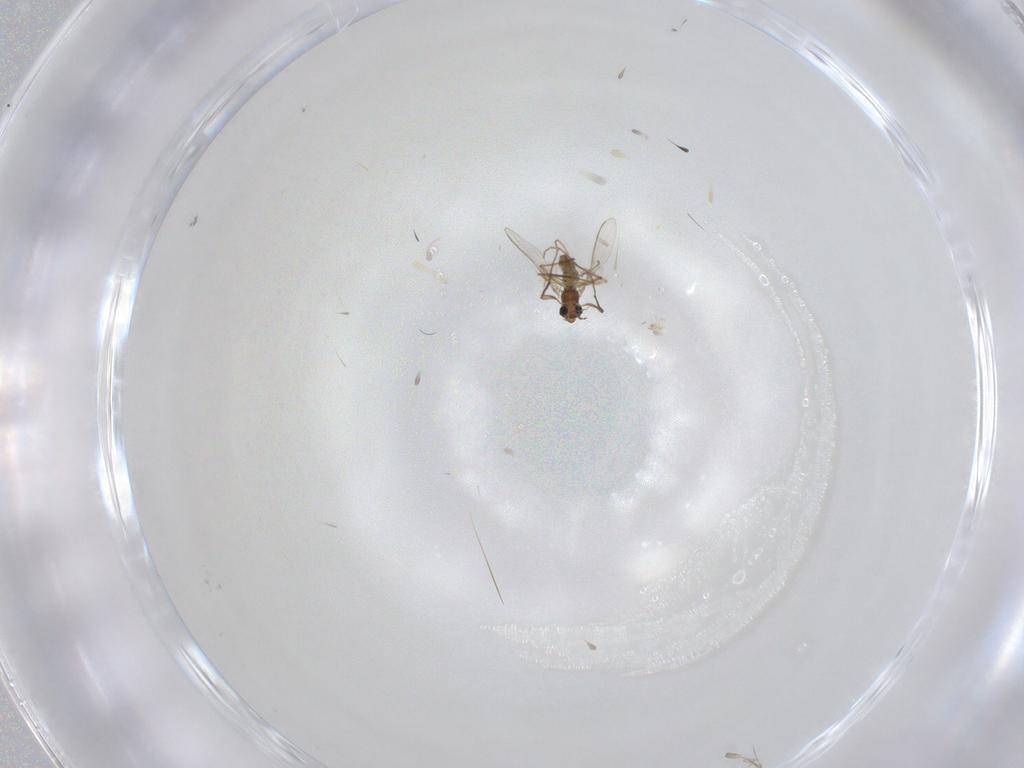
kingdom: Animalia
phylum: Arthropoda
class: Insecta
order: Diptera
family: Chironomidae
